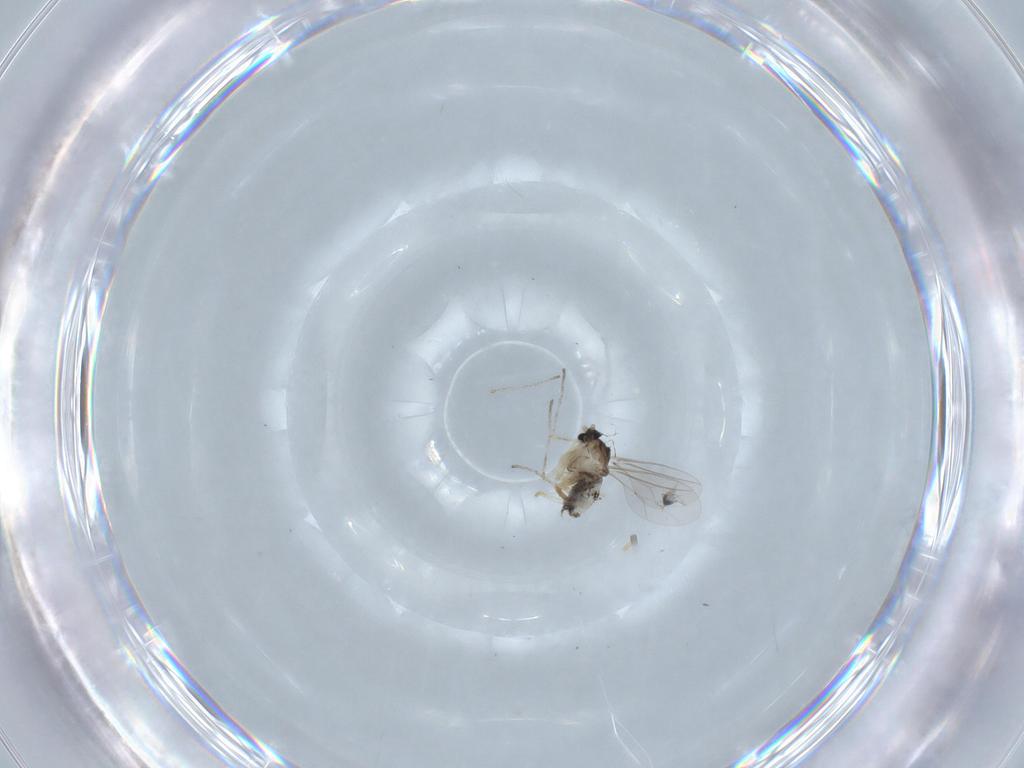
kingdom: Animalia
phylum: Arthropoda
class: Insecta
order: Diptera
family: Cecidomyiidae
